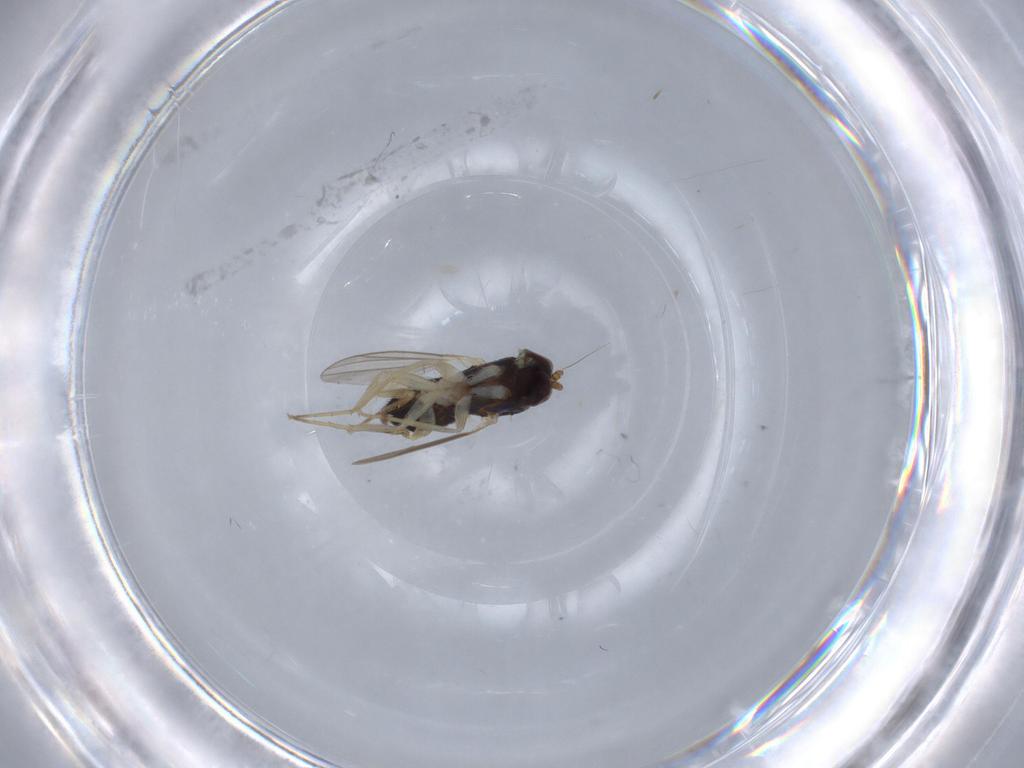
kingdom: Animalia
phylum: Arthropoda
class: Insecta
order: Diptera
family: Dolichopodidae
